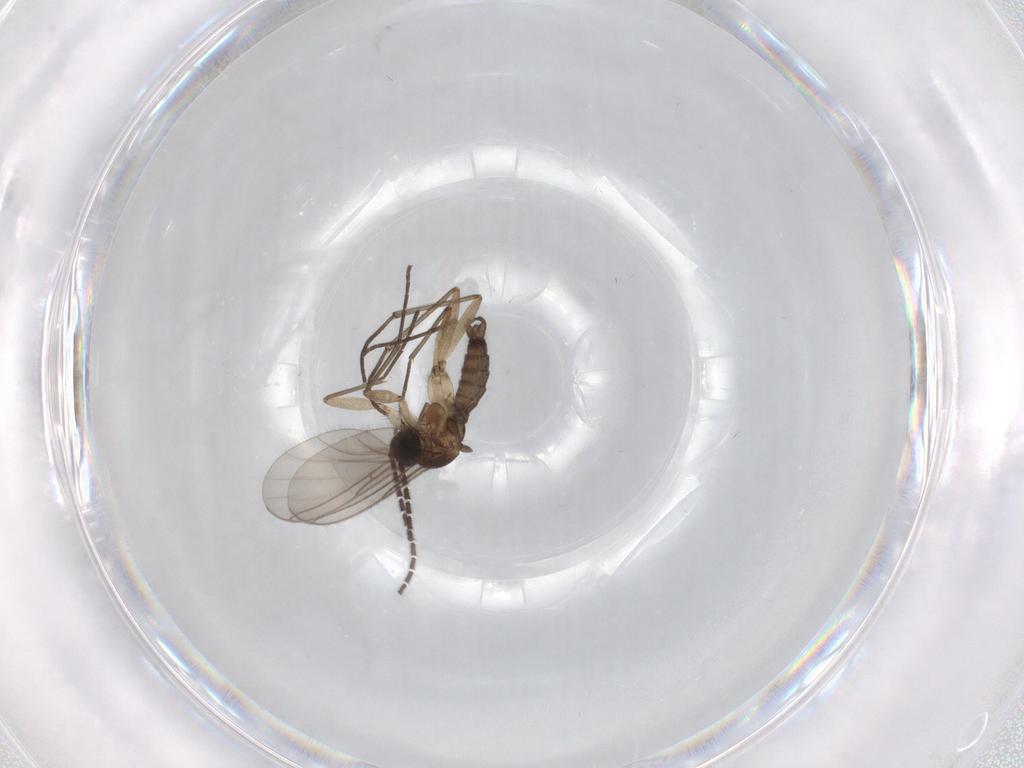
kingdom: Animalia
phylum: Arthropoda
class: Insecta
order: Diptera
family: Sciaridae
